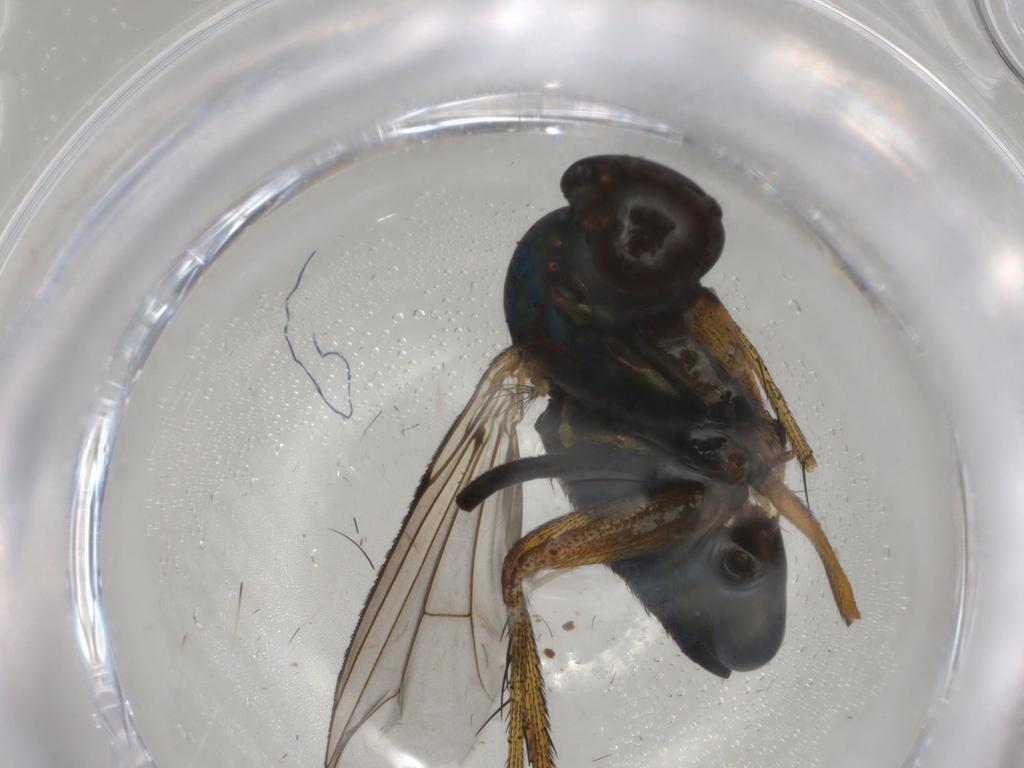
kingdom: Animalia
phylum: Arthropoda
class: Insecta
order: Diptera
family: Dolichopodidae
